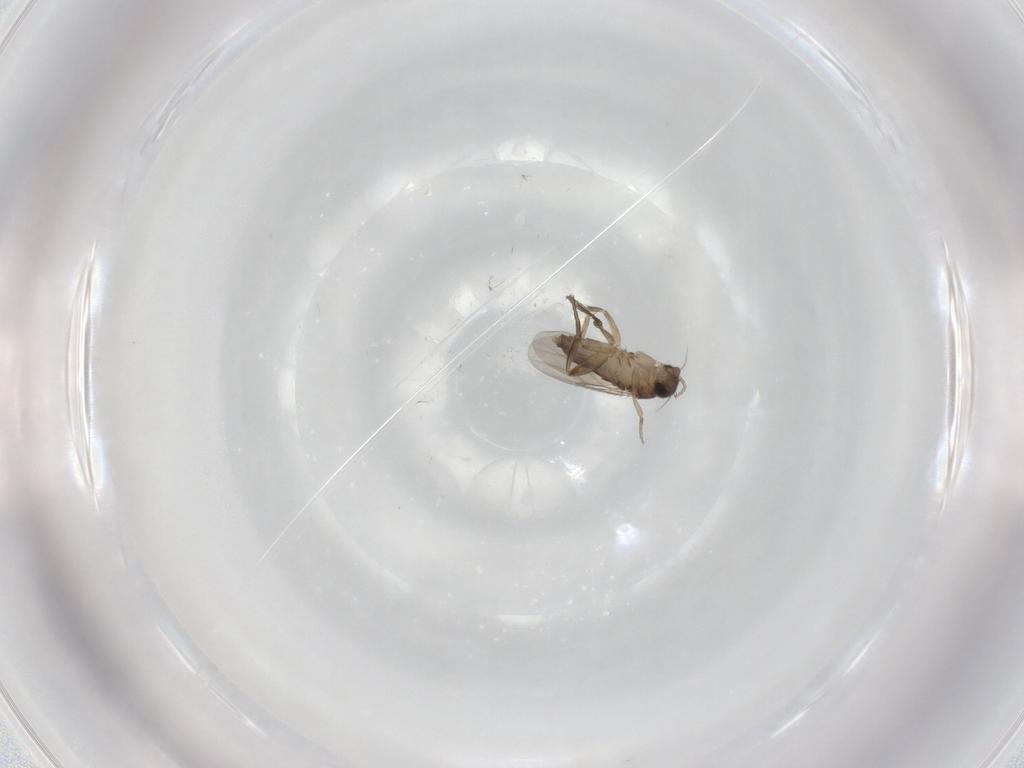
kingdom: Animalia
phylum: Arthropoda
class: Insecta
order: Diptera
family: Phoridae
